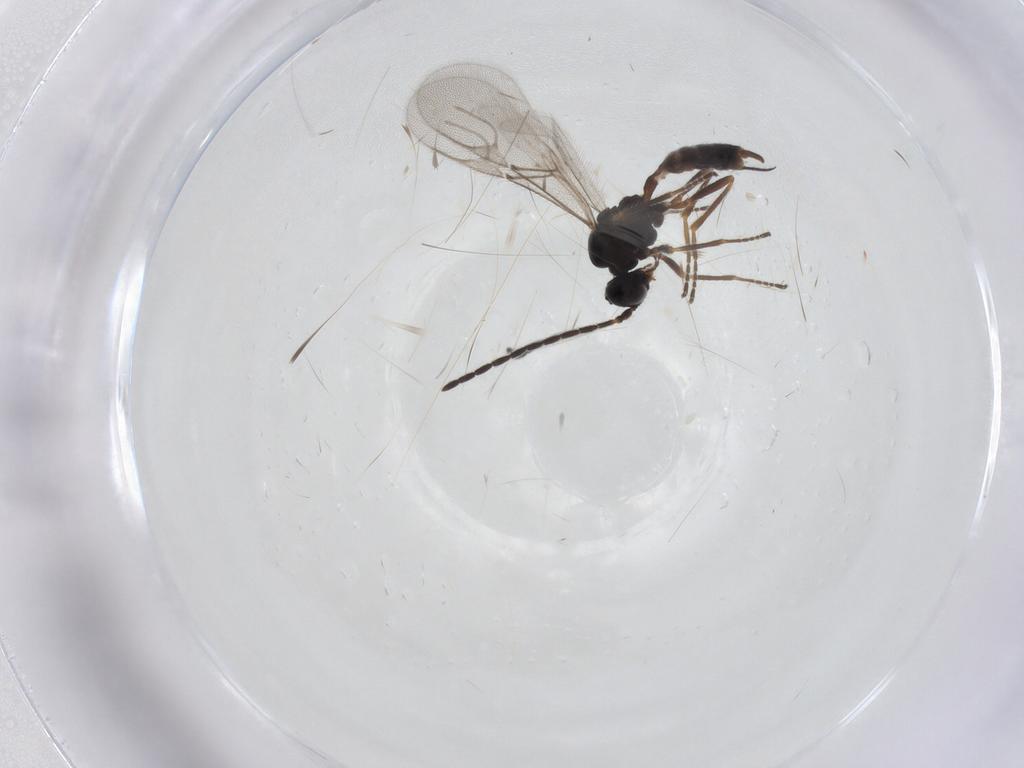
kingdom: Animalia
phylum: Arthropoda
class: Insecta
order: Hymenoptera
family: Braconidae
